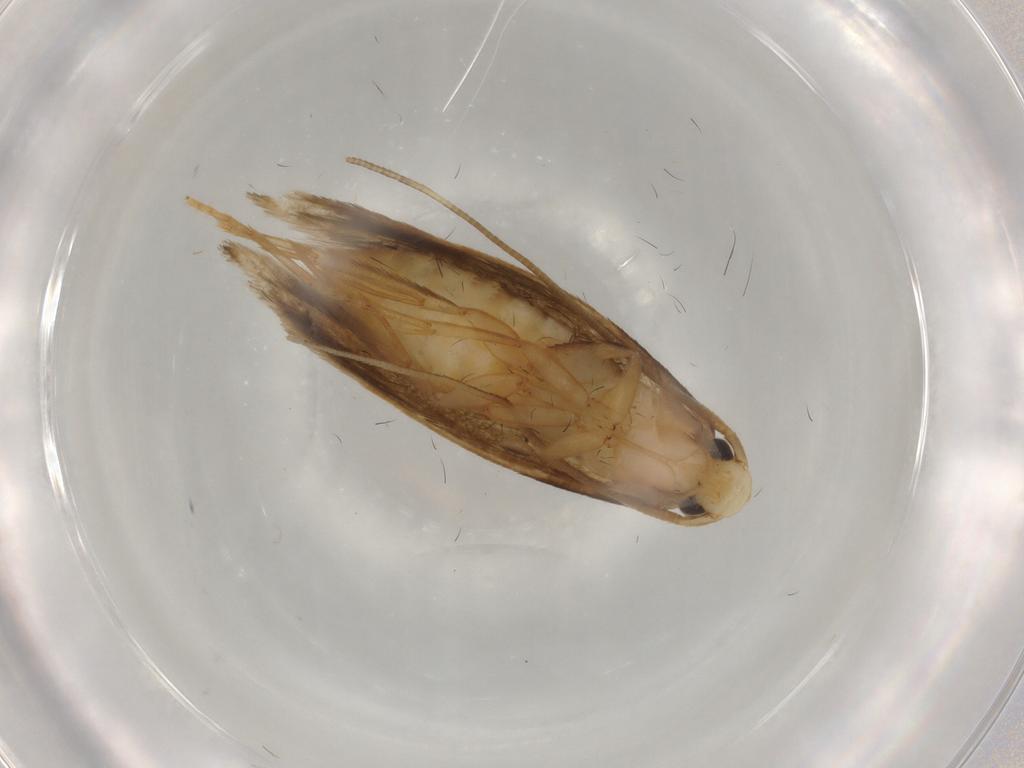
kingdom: Animalia
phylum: Arthropoda
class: Insecta
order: Lepidoptera
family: Tineidae
